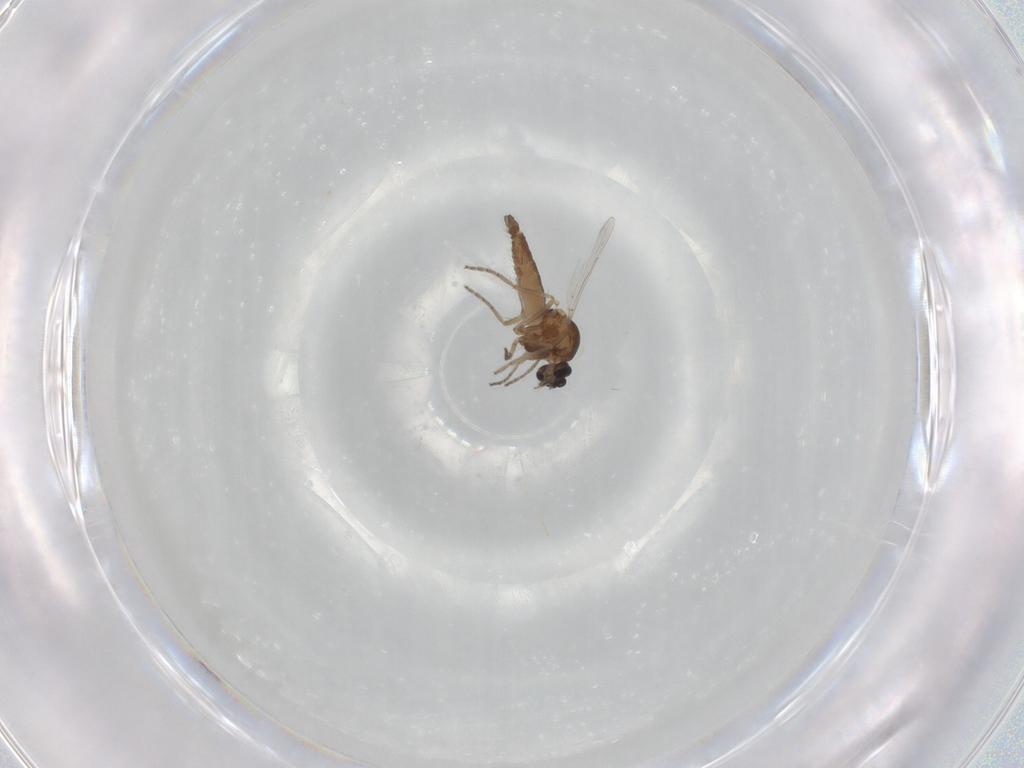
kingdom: Animalia
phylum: Arthropoda
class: Insecta
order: Diptera
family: Ceratopogonidae
